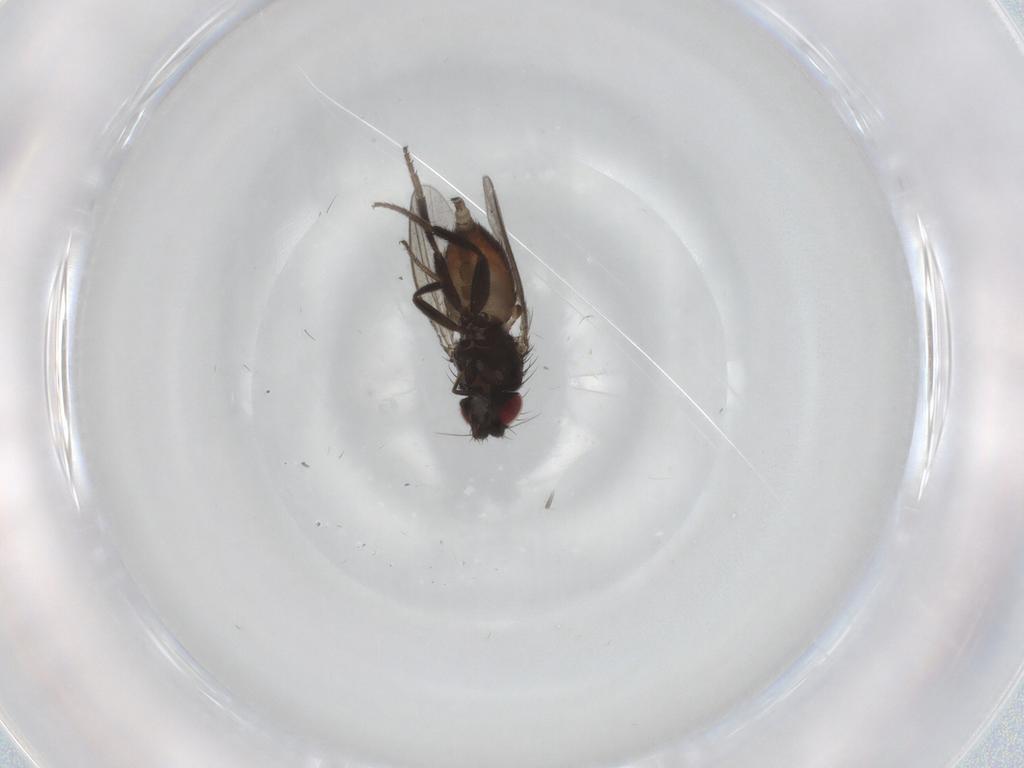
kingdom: Animalia
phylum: Arthropoda
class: Insecta
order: Diptera
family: Milichiidae
